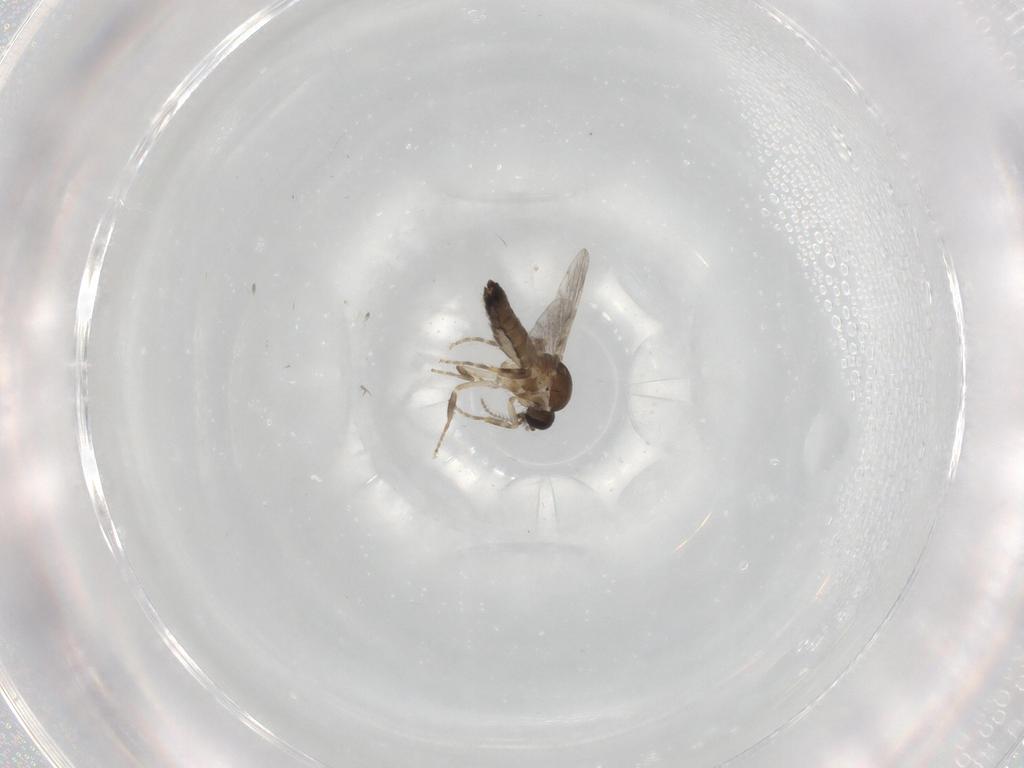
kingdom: Animalia
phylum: Arthropoda
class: Insecta
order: Diptera
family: Ceratopogonidae
